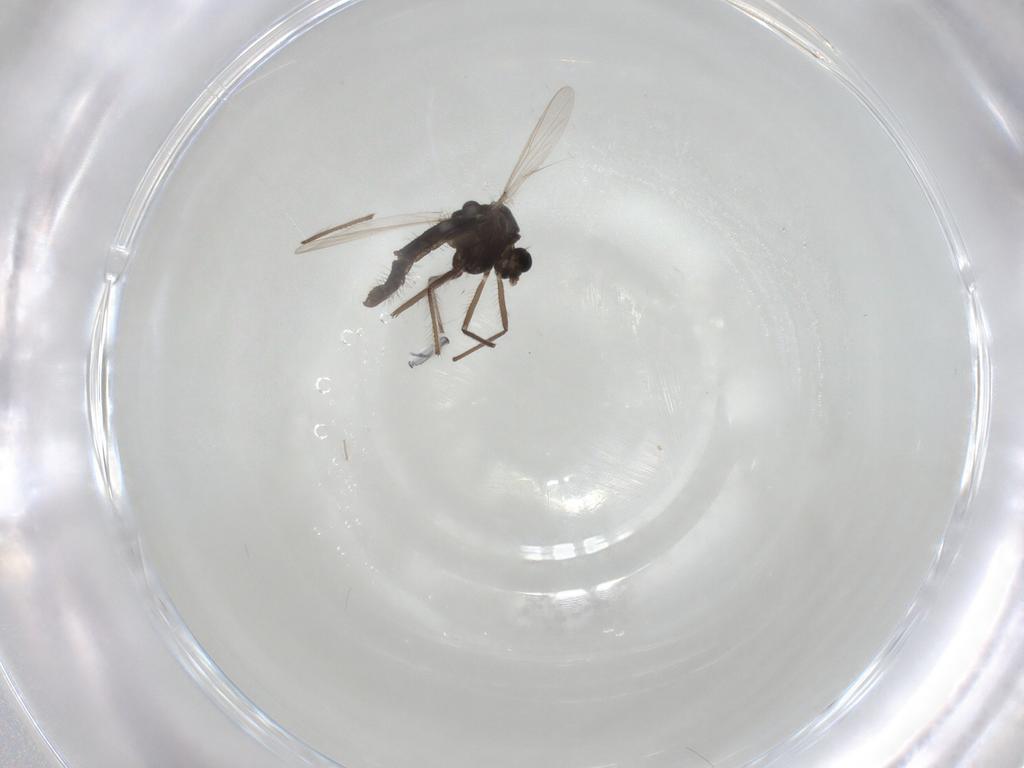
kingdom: Animalia
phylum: Arthropoda
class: Insecta
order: Diptera
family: Chironomidae
